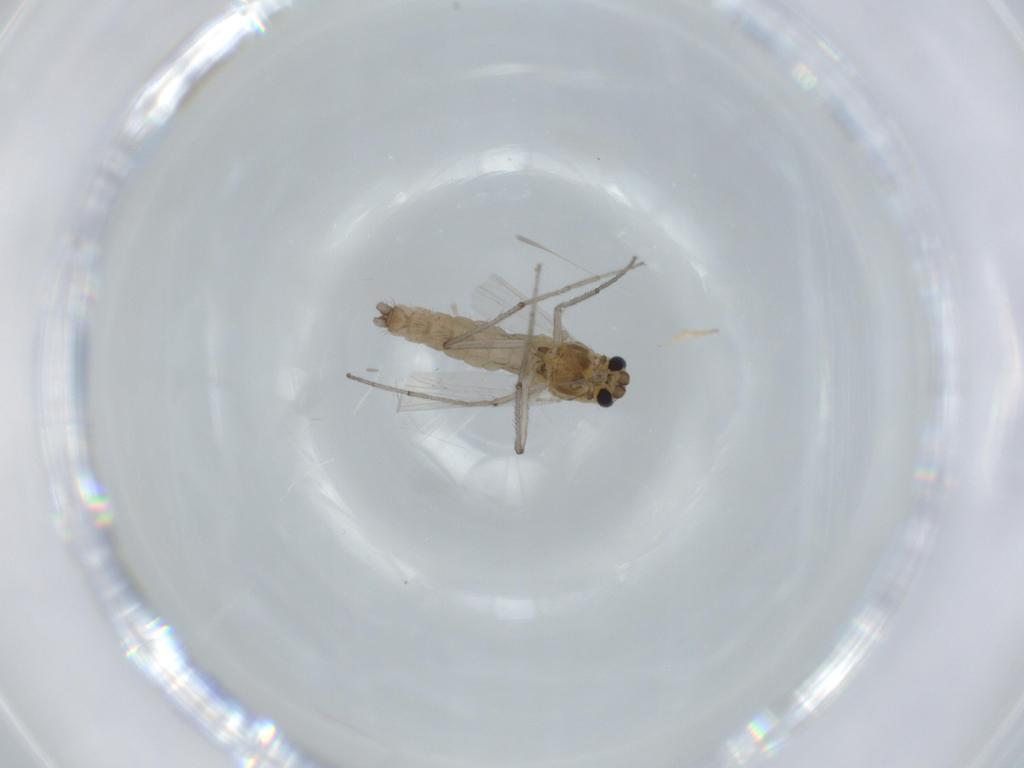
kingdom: Animalia
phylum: Arthropoda
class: Insecta
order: Diptera
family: Chironomidae
